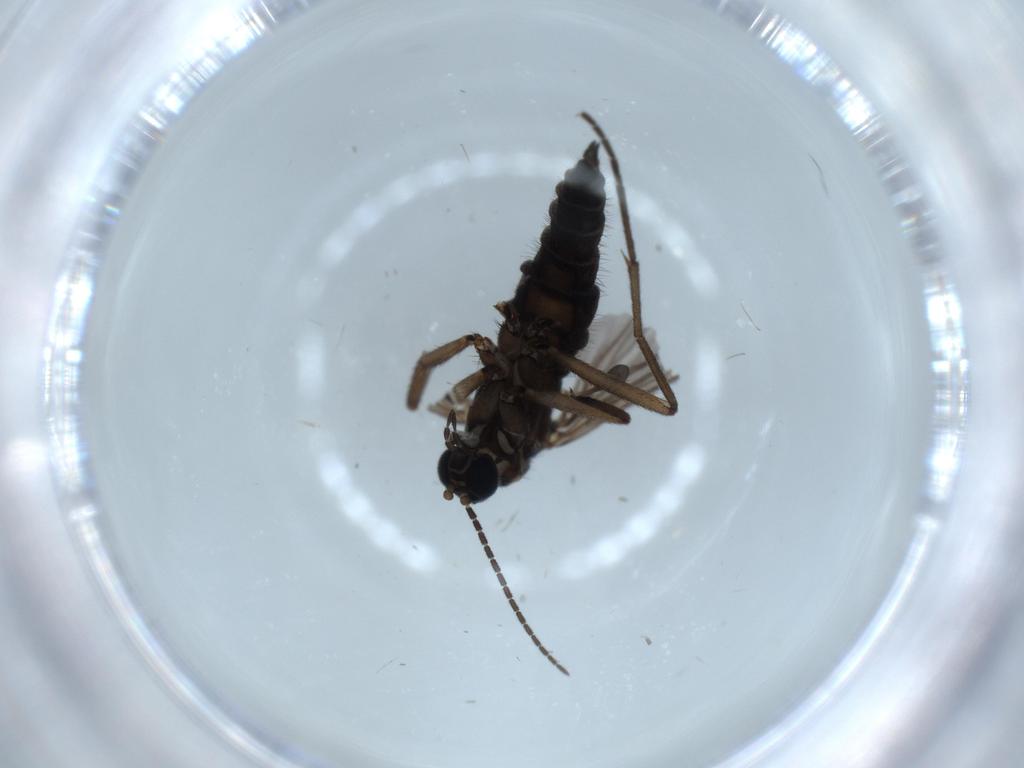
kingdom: Animalia
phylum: Arthropoda
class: Insecta
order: Diptera
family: Sciaridae
